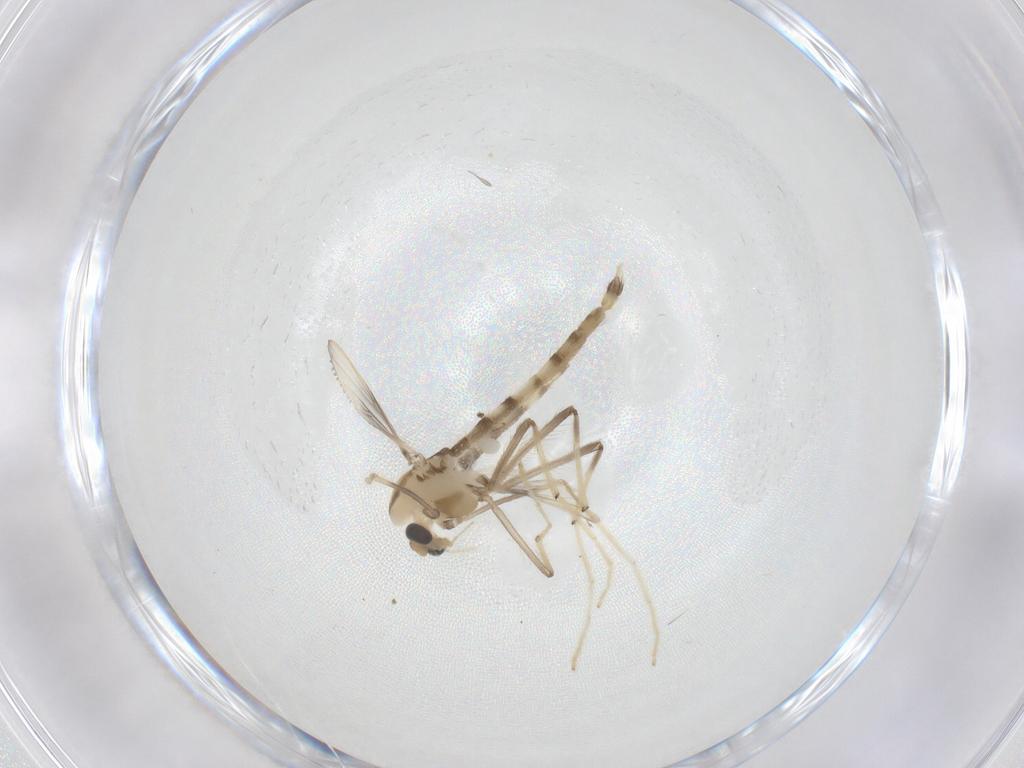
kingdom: Animalia
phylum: Arthropoda
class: Insecta
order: Diptera
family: Chironomidae
